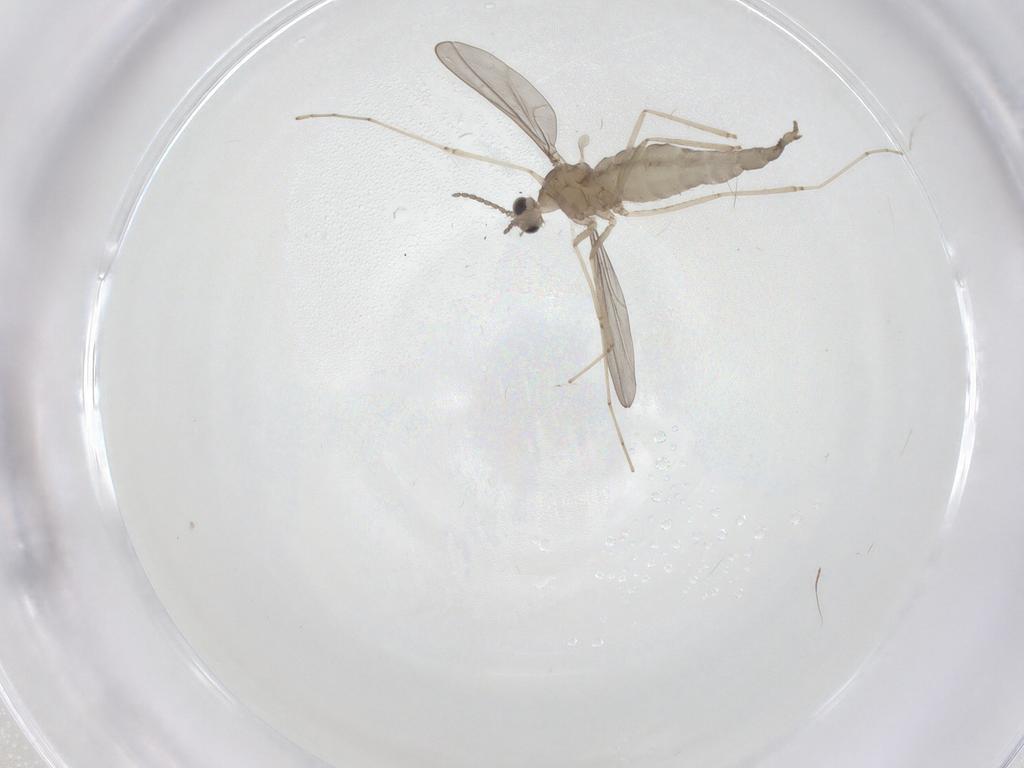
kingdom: Animalia
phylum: Arthropoda
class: Insecta
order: Diptera
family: Cecidomyiidae
